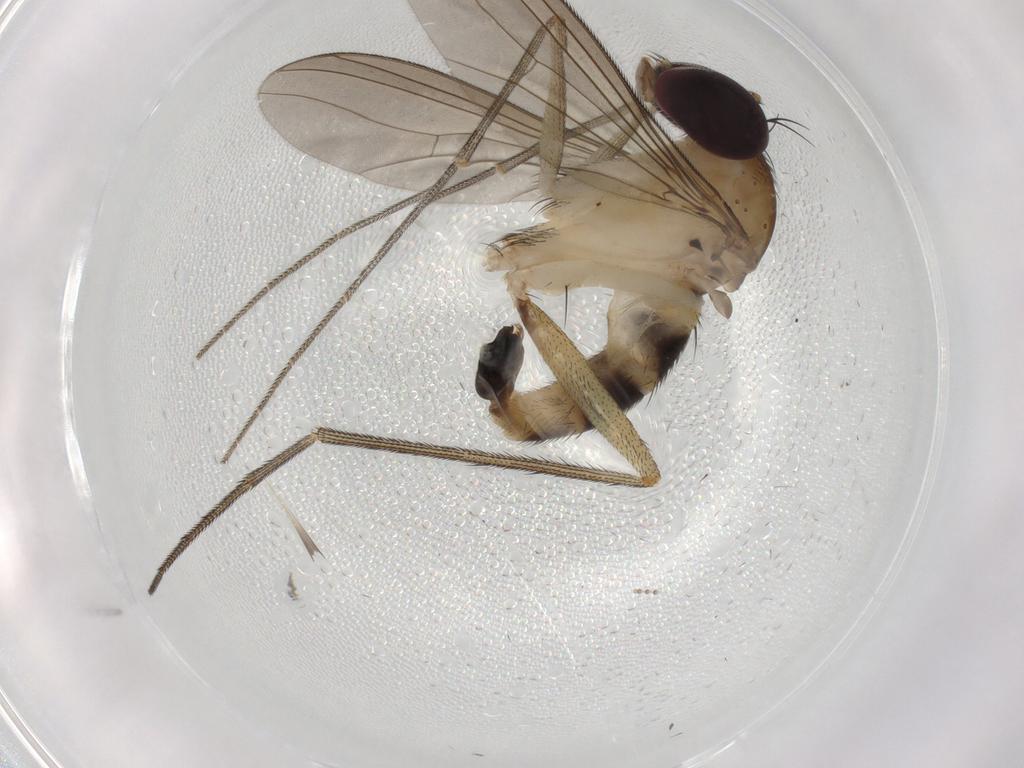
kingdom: Animalia
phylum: Arthropoda
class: Insecta
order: Diptera
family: Dolichopodidae
